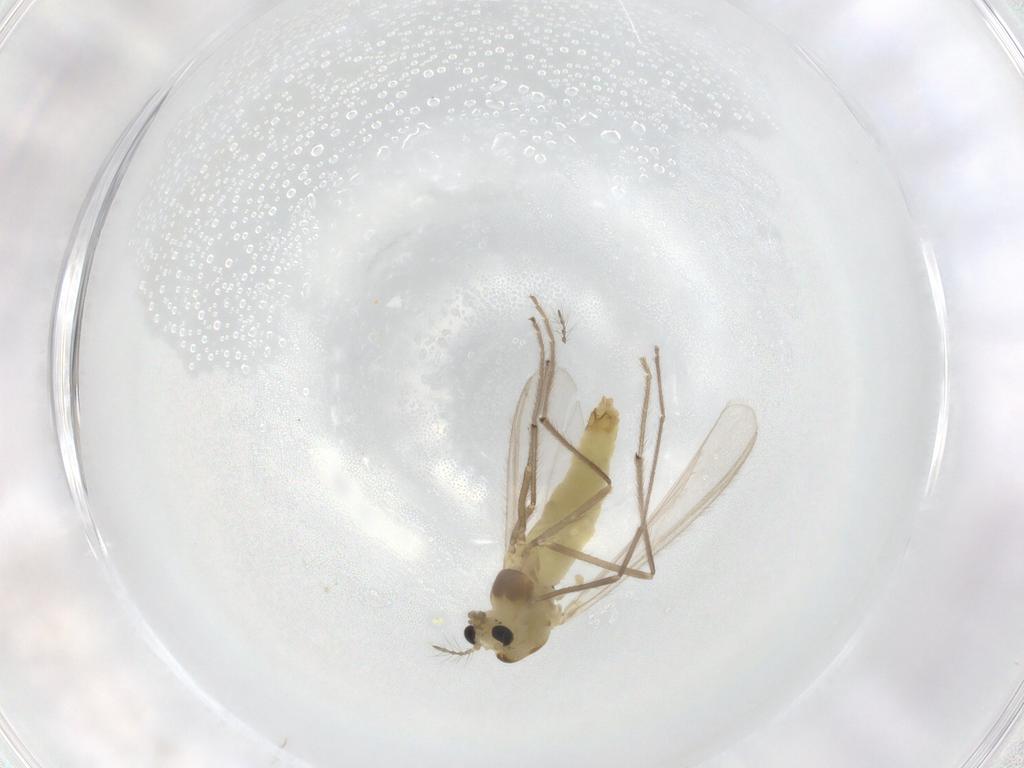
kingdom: Animalia
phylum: Arthropoda
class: Insecta
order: Diptera
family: Chironomidae
